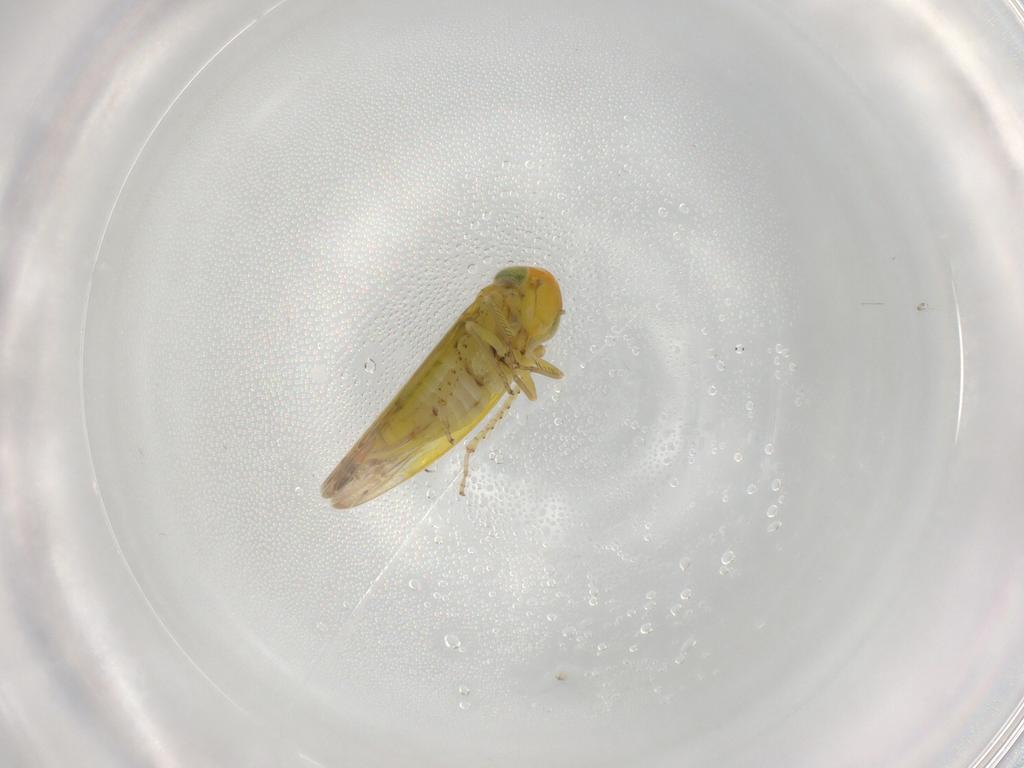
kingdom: Animalia
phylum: Arthropoda
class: Insecta
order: Hemiptera
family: Cicadellidae
